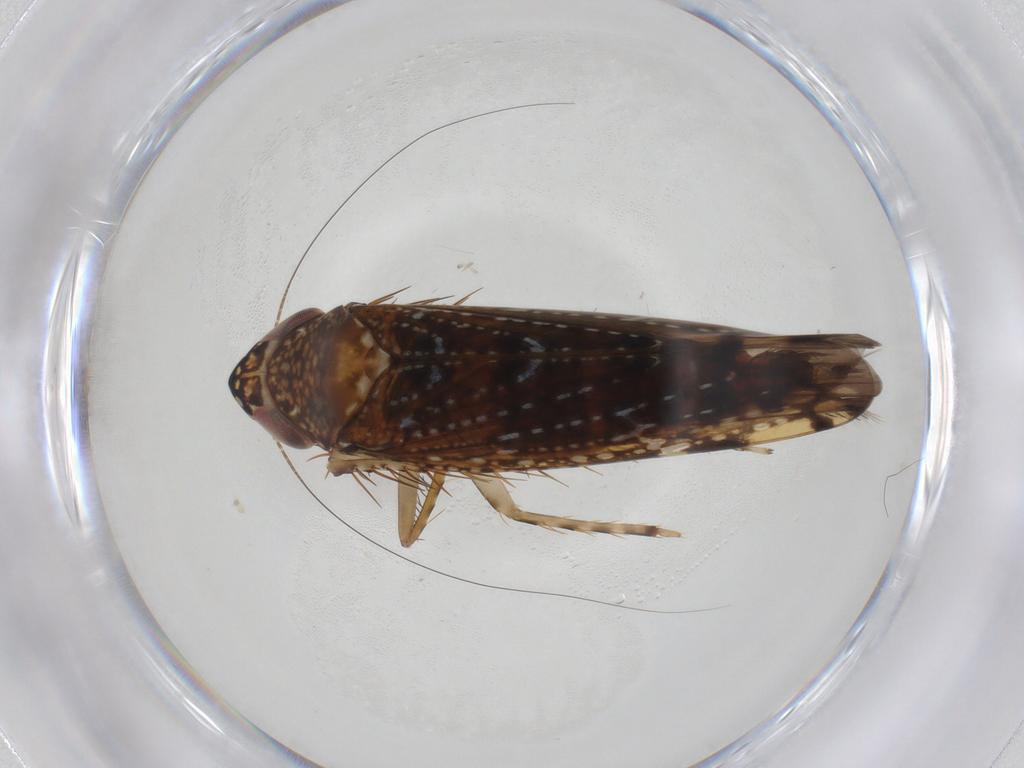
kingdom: Animalia
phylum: Arthropoda
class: Insecta
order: Hemiptera
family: Cicadellidae
